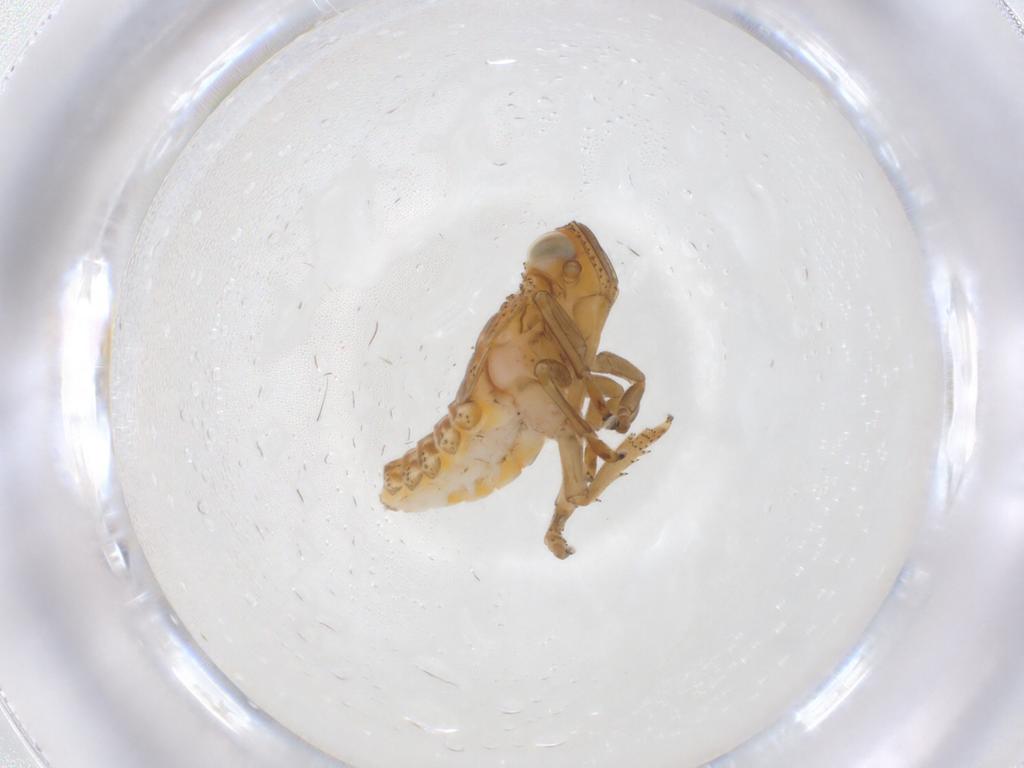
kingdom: Animalia
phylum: Arthropoda
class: Insecta
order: Hemiptera
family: Issidae
